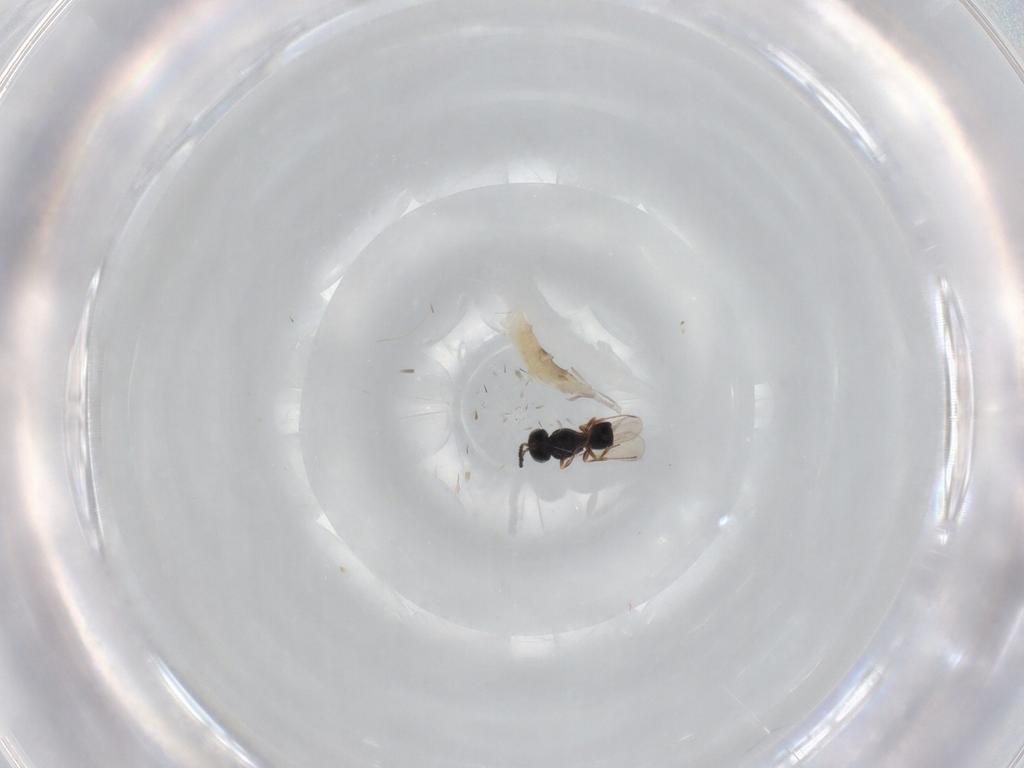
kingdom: Animalia
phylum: Arthropoda
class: Insecta
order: Hymenoptera
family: Scelionidae
